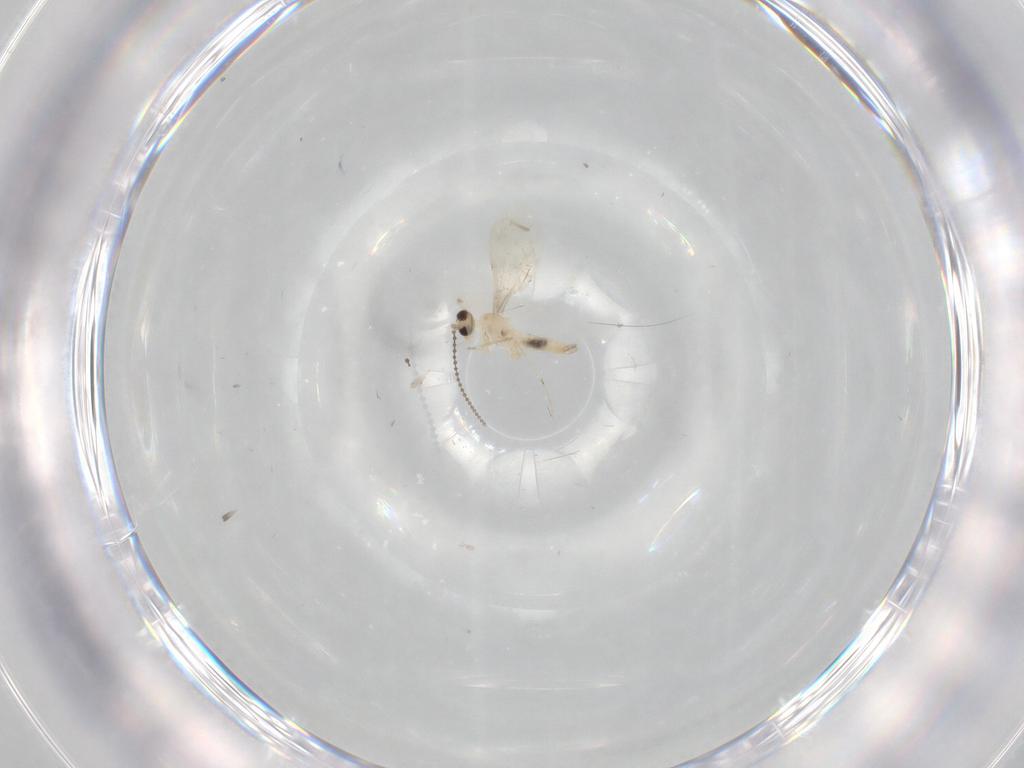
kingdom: Animalia
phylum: Arthropoda
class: Insecta
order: Diptera
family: Cecidomyiidae
